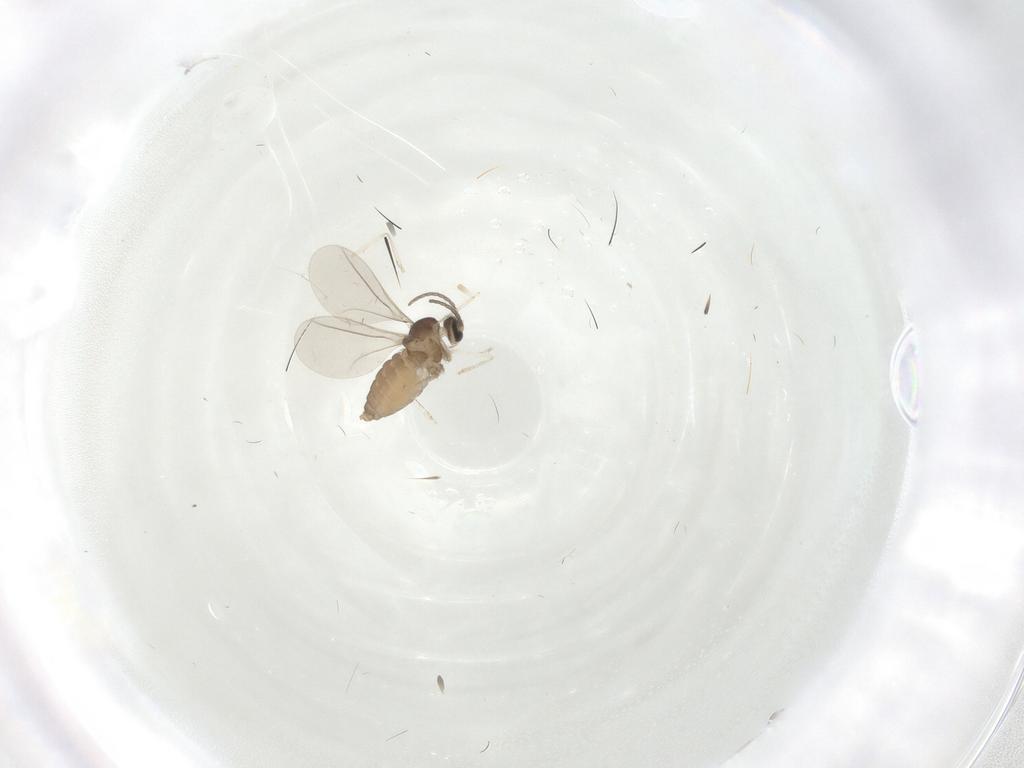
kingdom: Animalia
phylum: Arthropoda
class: Insecta
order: Diptera
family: Cecidomyiidae
